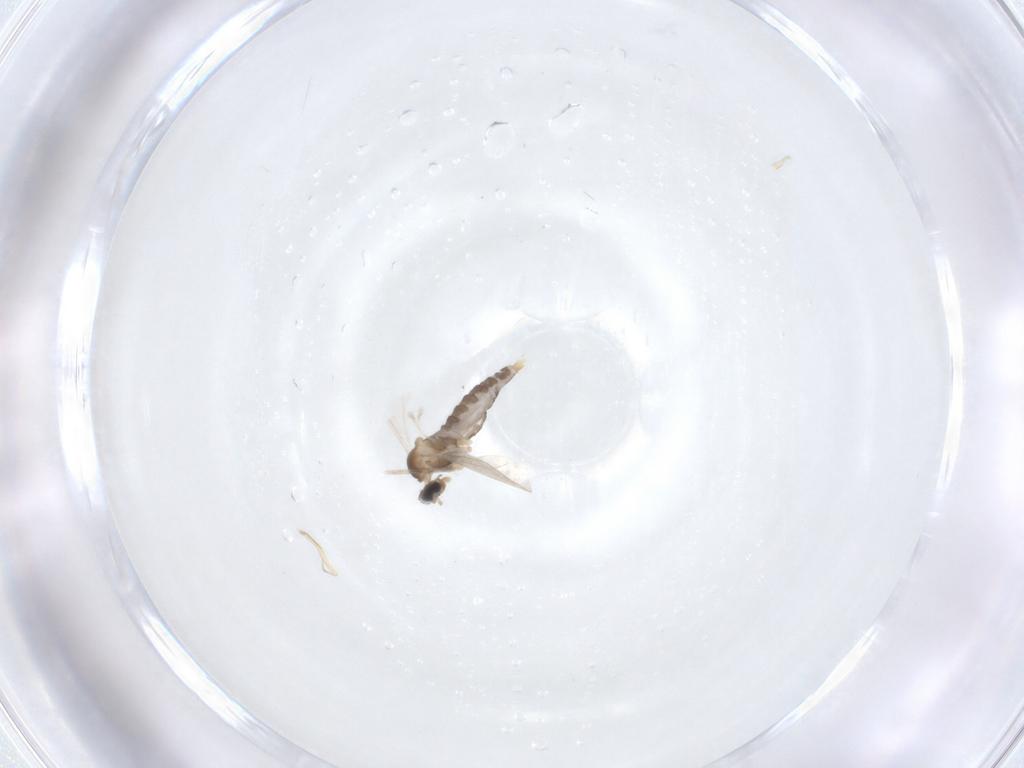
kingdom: Animalia
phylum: Arthropoda
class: Insecta
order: Diptera
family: Cecidomyiidae
